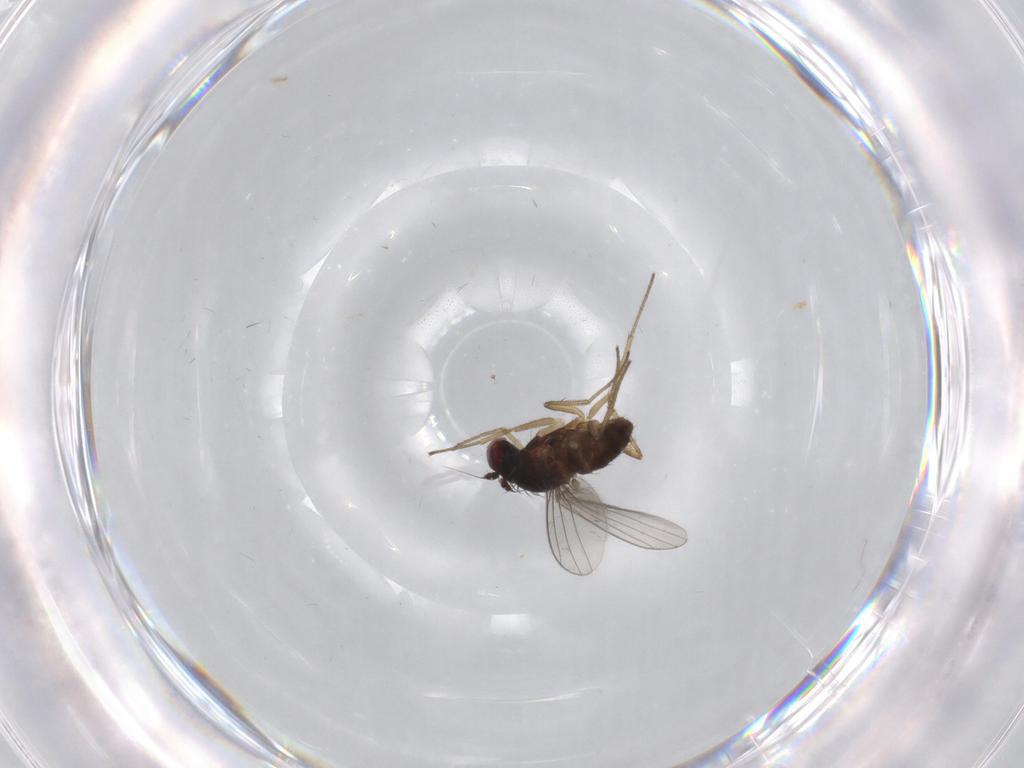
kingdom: Animalia
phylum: Arthropoda
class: Insecta
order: Diptera
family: Cecidomyiidae
